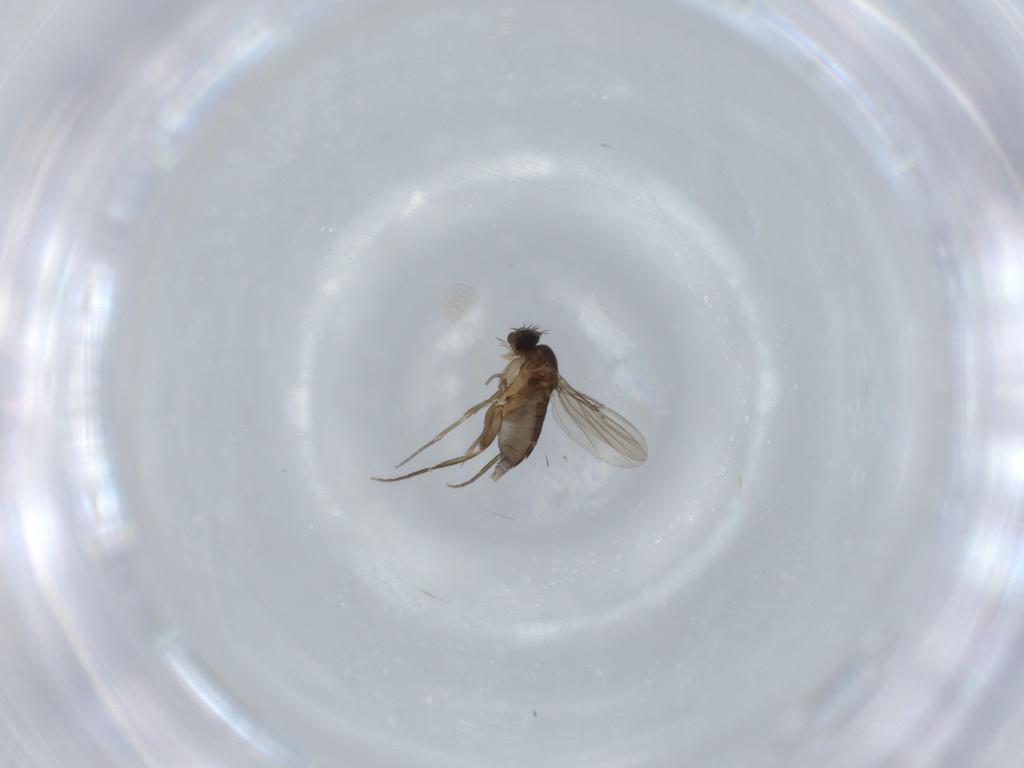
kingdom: Animalia
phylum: Arthropoda
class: Insecta
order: Diptera
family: Phoridae
